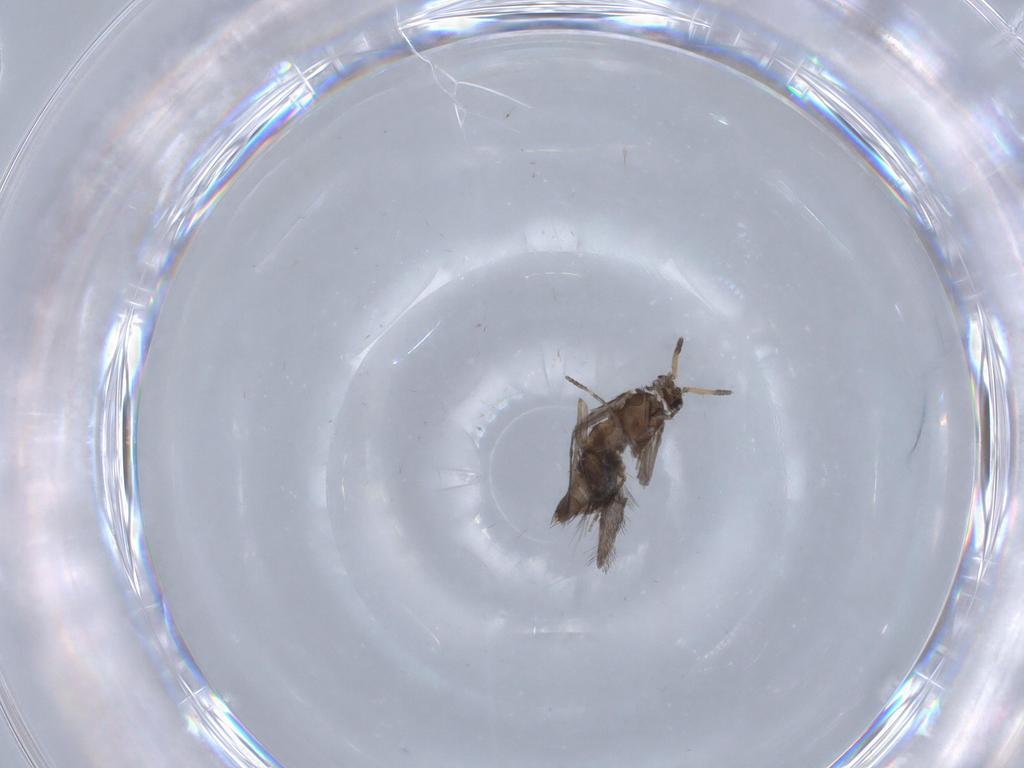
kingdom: Animalia
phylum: Arthropoda
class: Insecta
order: Trichoptera
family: Hydroptilidae
